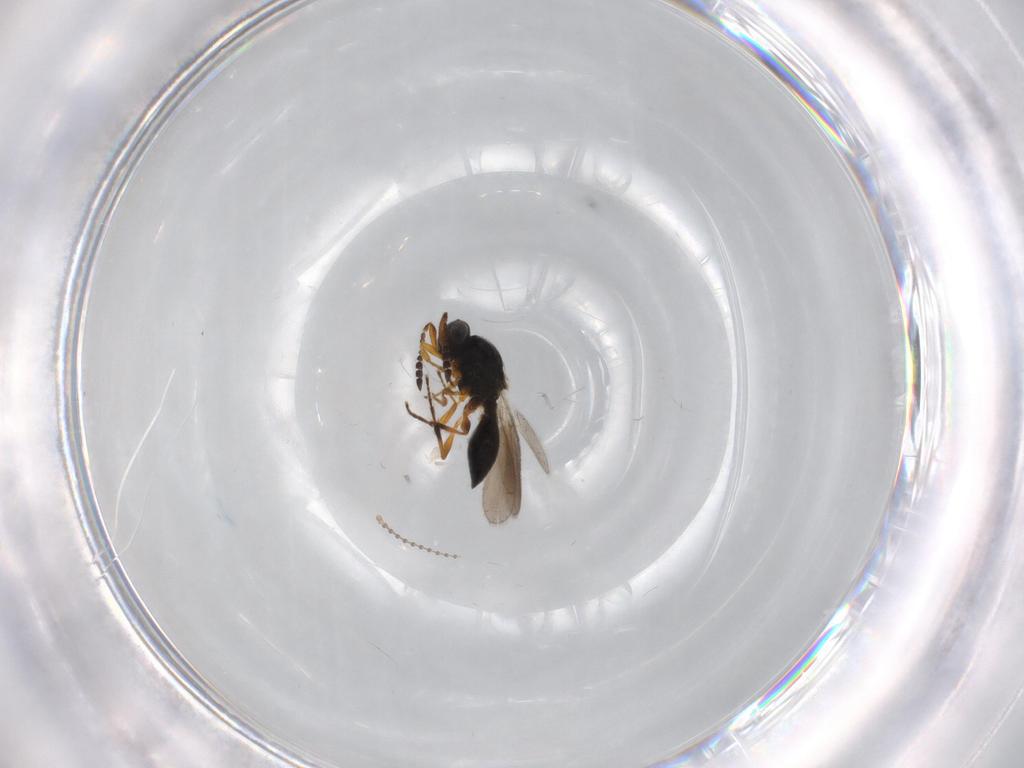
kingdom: Animalia
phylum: Arthropoda
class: Insecta
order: Hymenoptera
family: Platygastridae
